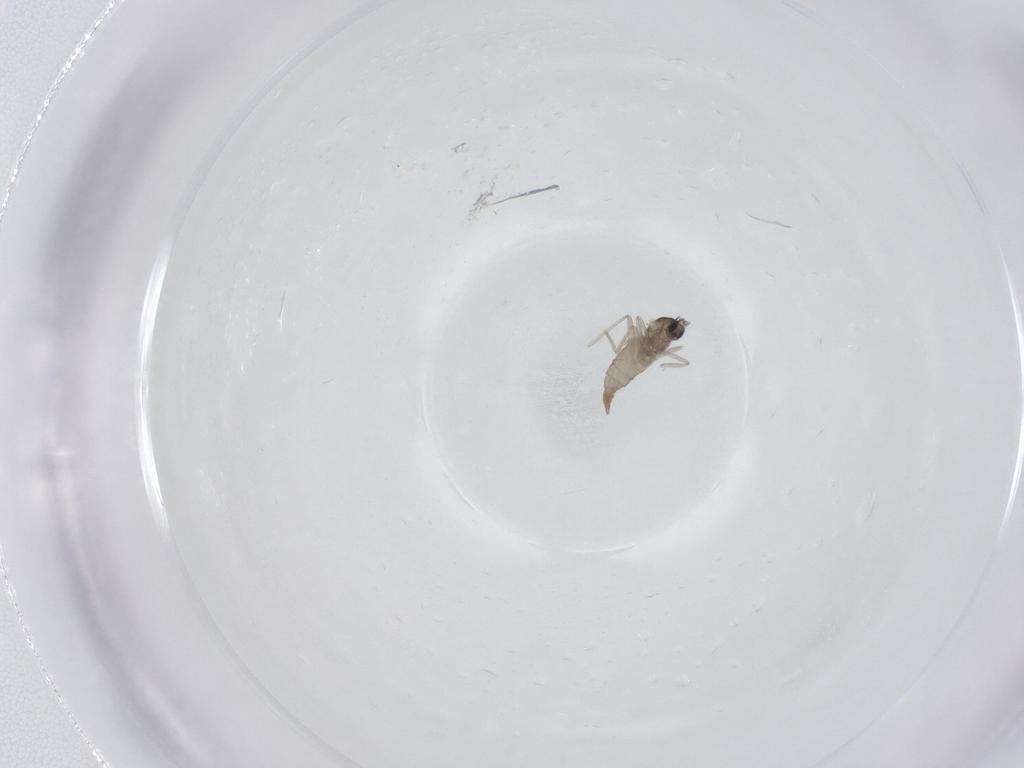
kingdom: Animalia
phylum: Arthropoda
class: Insecta
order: Diptera
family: Cecidomyiidae
